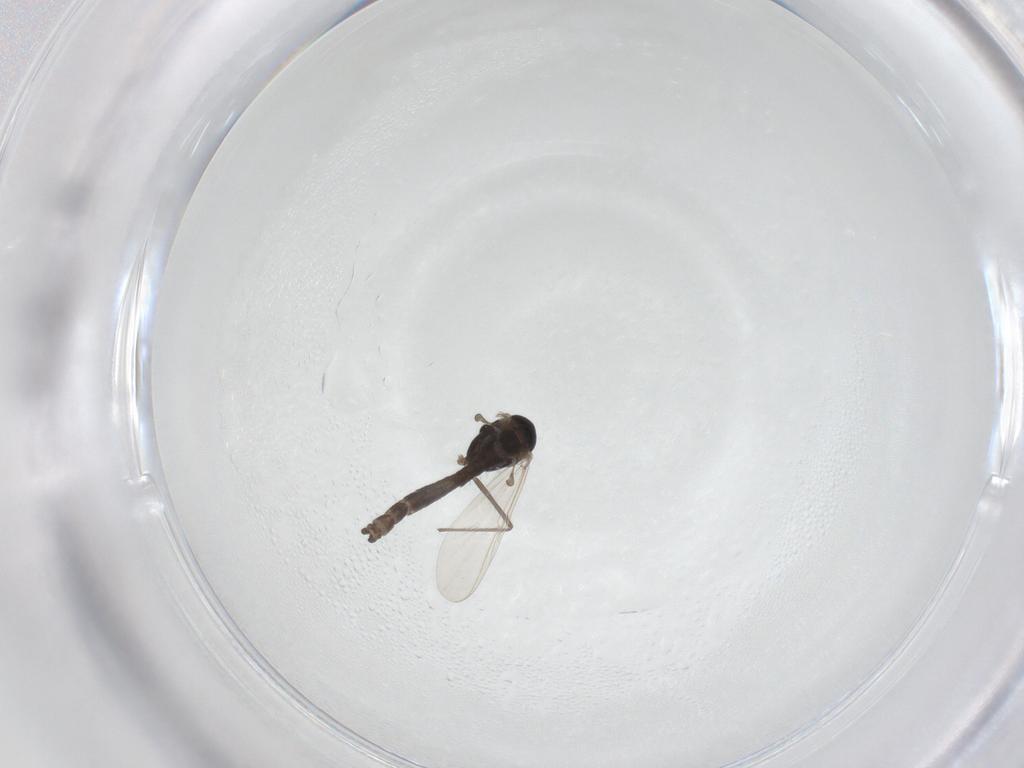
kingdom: Animalia
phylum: Arthropoda
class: Insecta
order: Diptera
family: Chironomidae
